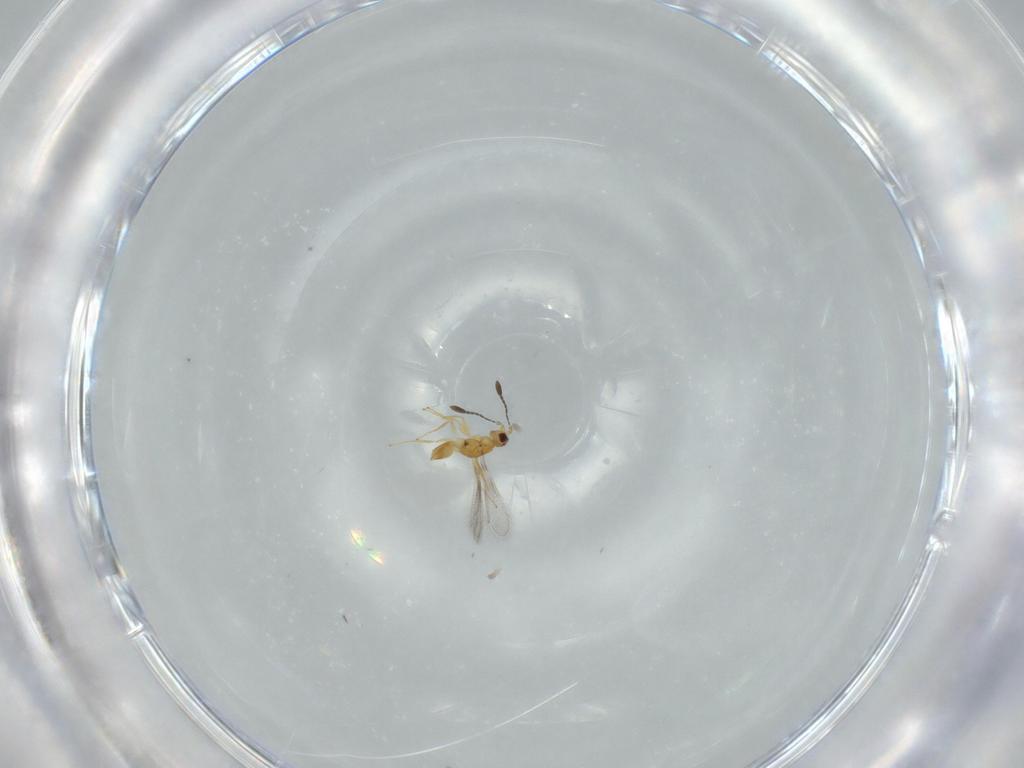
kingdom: Animalia
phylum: Arthropoda
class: Insecta
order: Hymenoptera
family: Mymaridae
